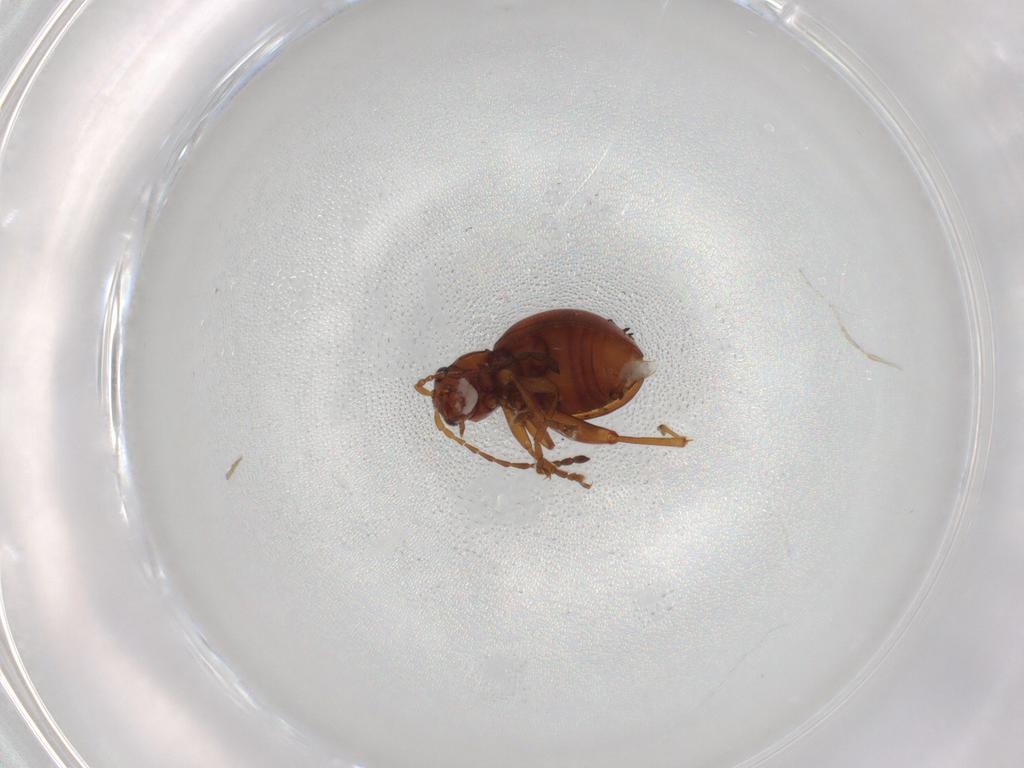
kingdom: Animalia
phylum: Arthropoda
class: Insecta
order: Coleoptera
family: Chrysomelidae
